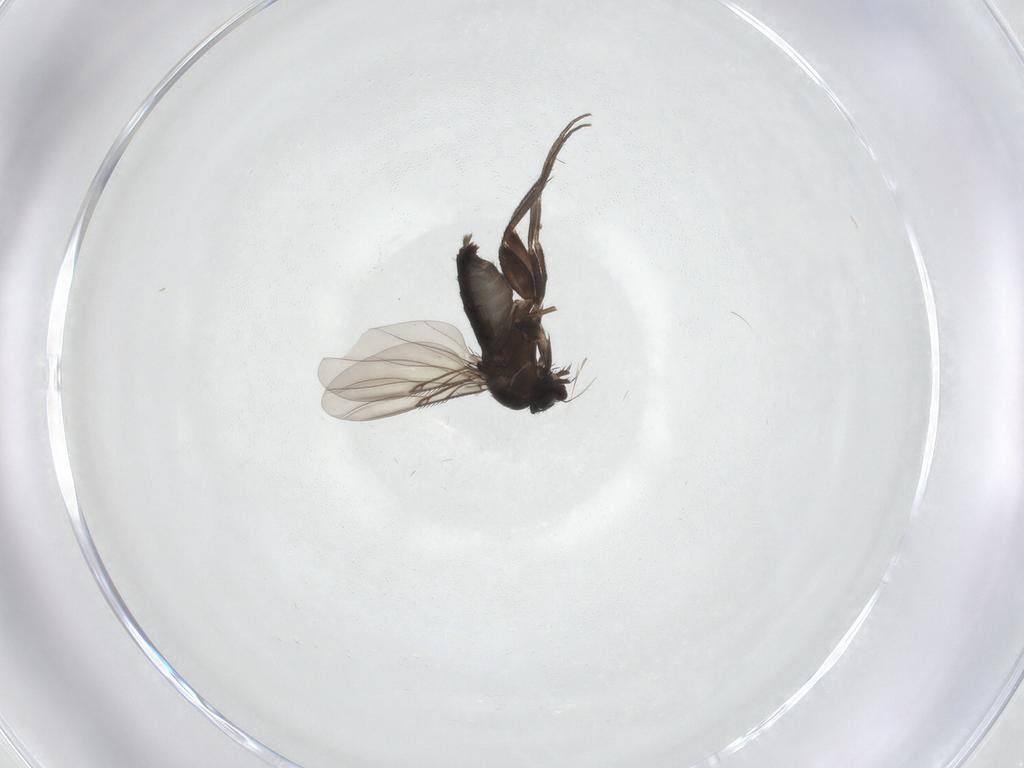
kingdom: Animalia
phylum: Arthropoda
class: Insecta
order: Diptera
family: Phoridae
